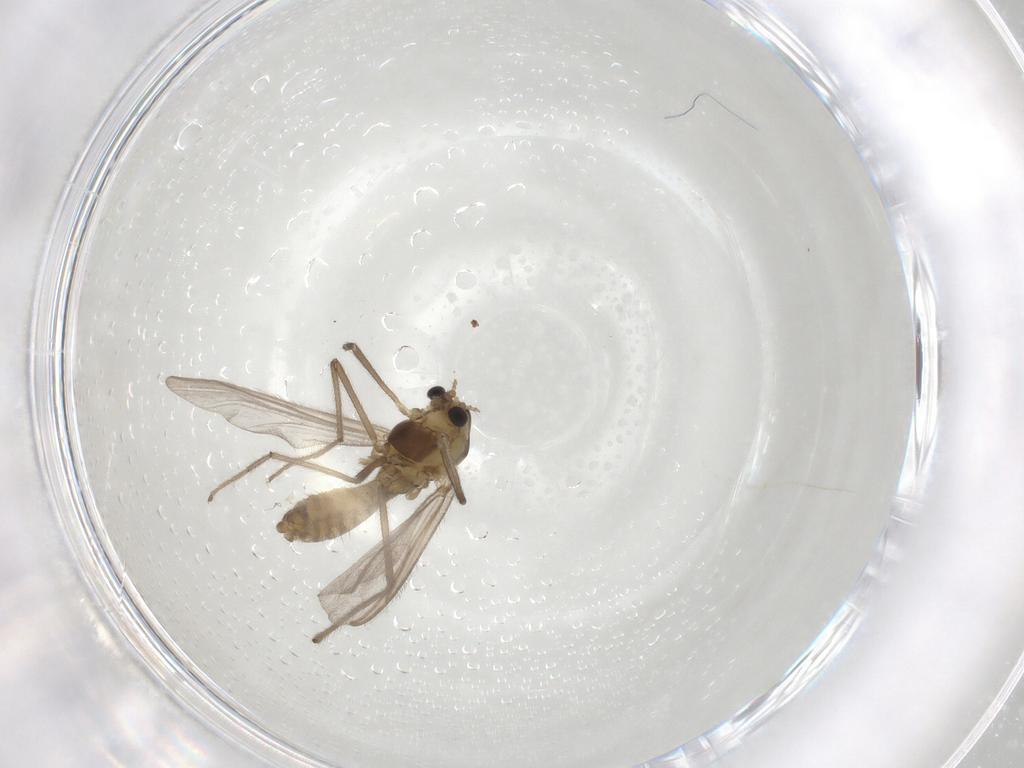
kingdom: Animalia
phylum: Arthropoda
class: Insecta
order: Diptera
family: Chironomidae
